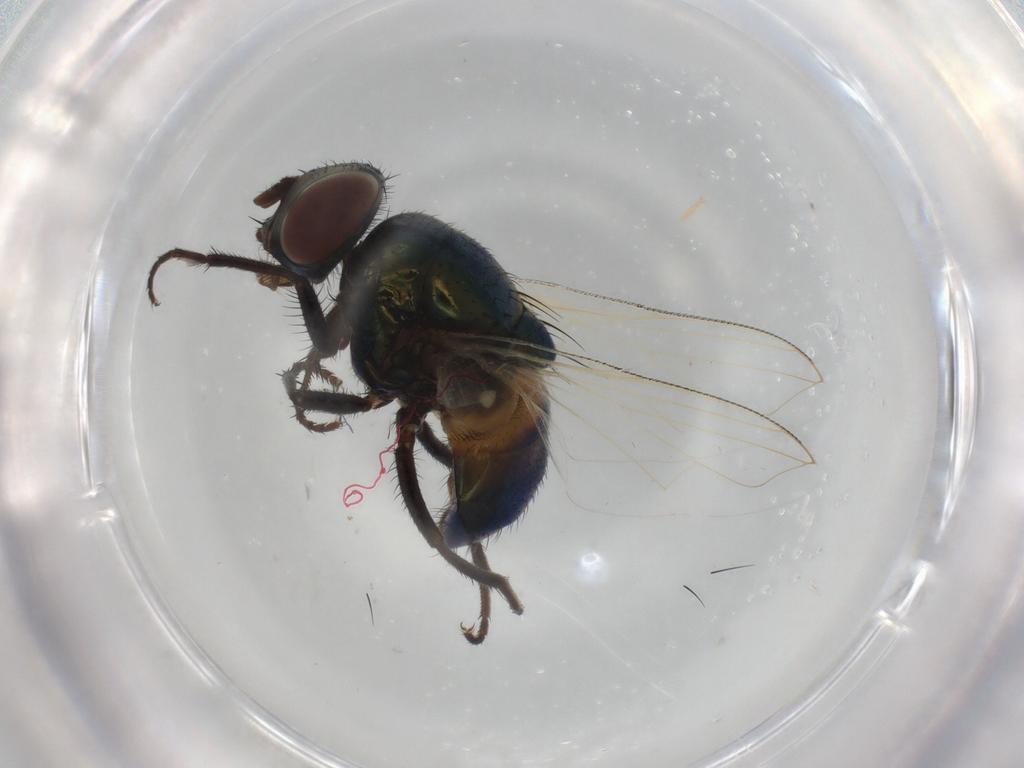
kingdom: Animalia
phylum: Arthropoda
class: Insecta
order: Diptera
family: Muscidae
